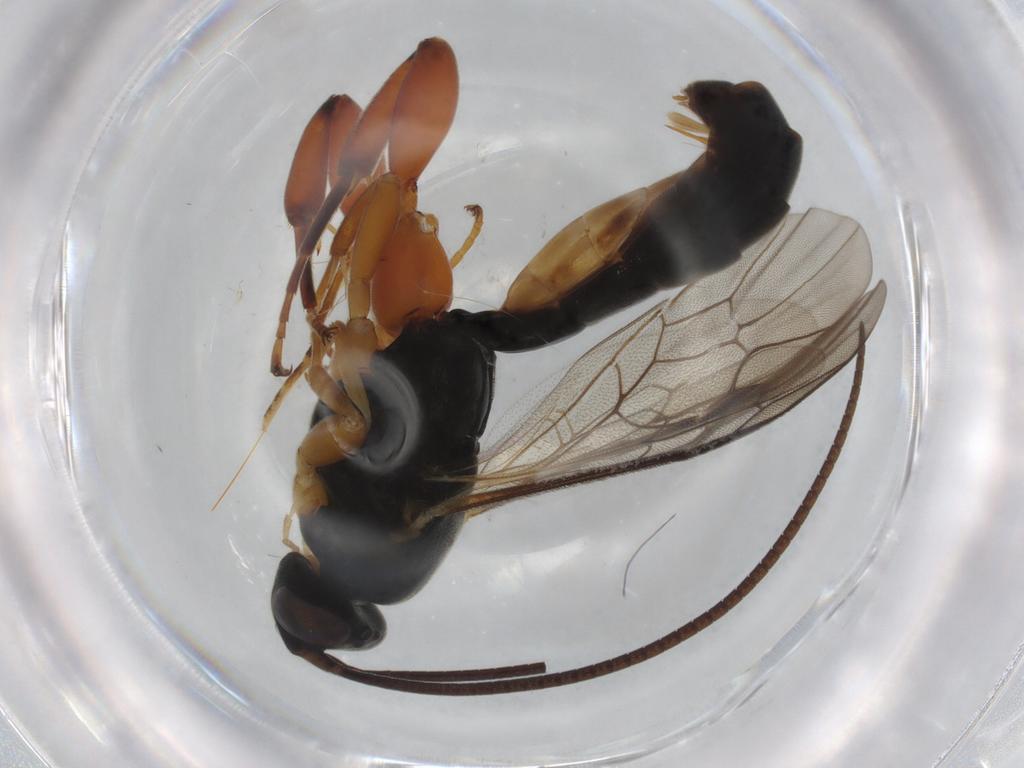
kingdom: Animalia
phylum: Arthropoda
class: Insecta
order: Hymenoptera
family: Ichneumonidae
